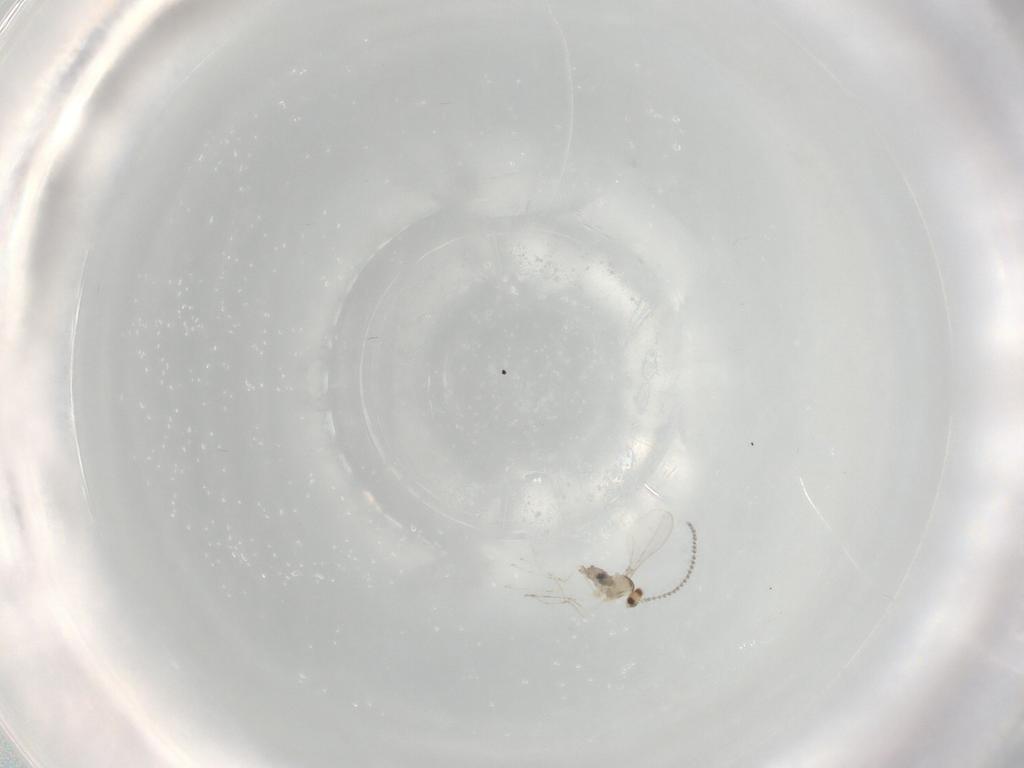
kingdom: Animalia
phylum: Arthropoda
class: Insecta
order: Diptera
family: Cecidomyiidae
